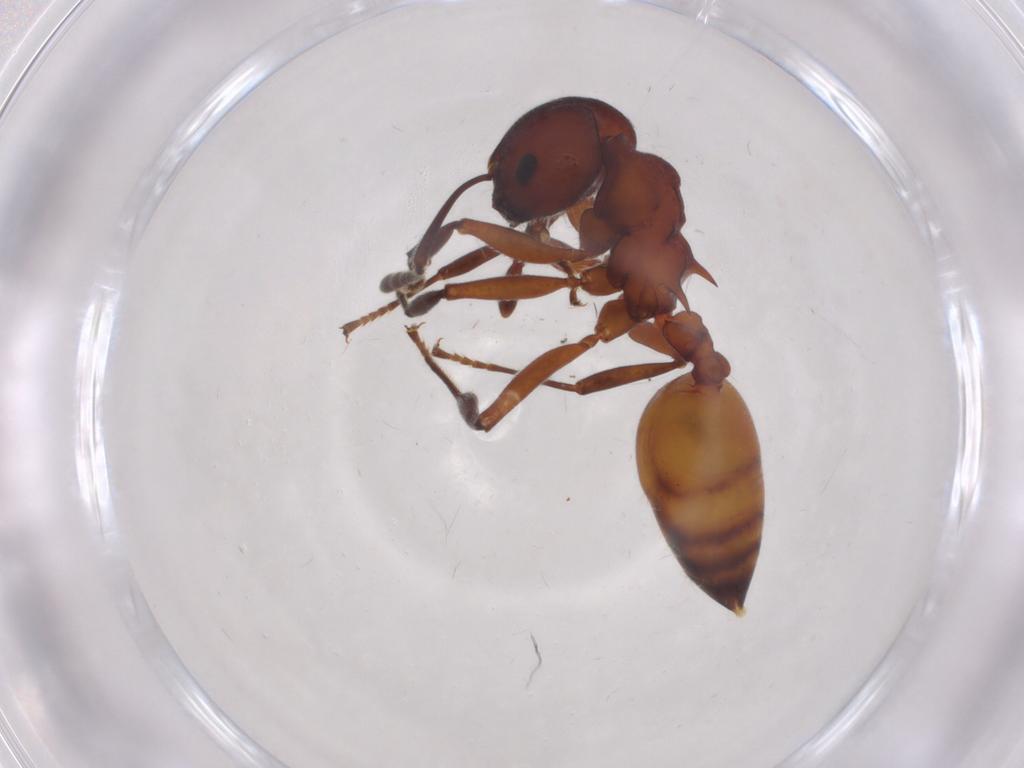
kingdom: Animalia
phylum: Arthropoda
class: Insecta
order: Hymenoptera
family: Formicidae
